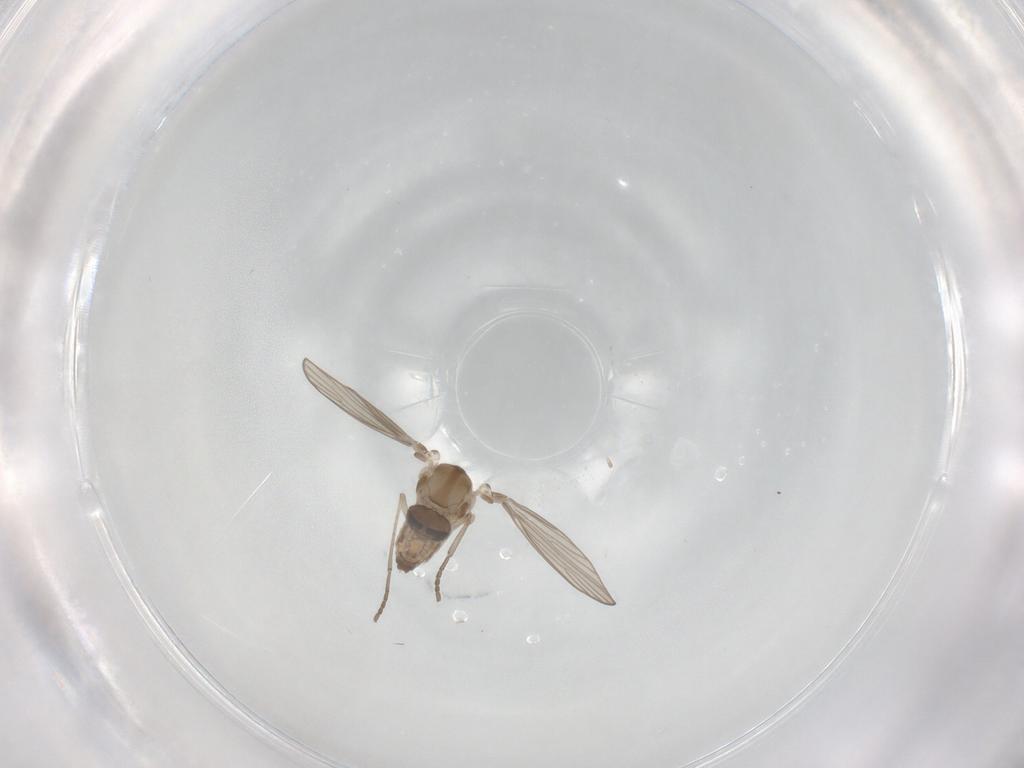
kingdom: Animalia
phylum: Arthropoda
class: Insecta
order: Diptera
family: Psychodidae
